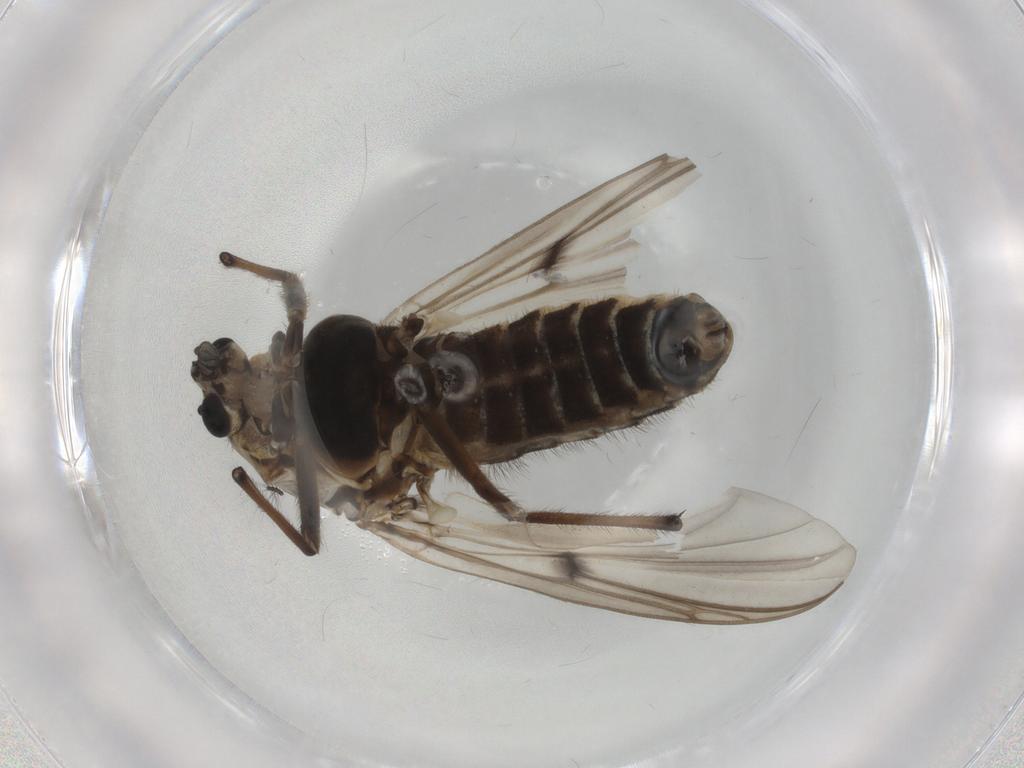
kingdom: Animalia
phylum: Arthropoda
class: Insecta
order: Diptera
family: Chironomidae
